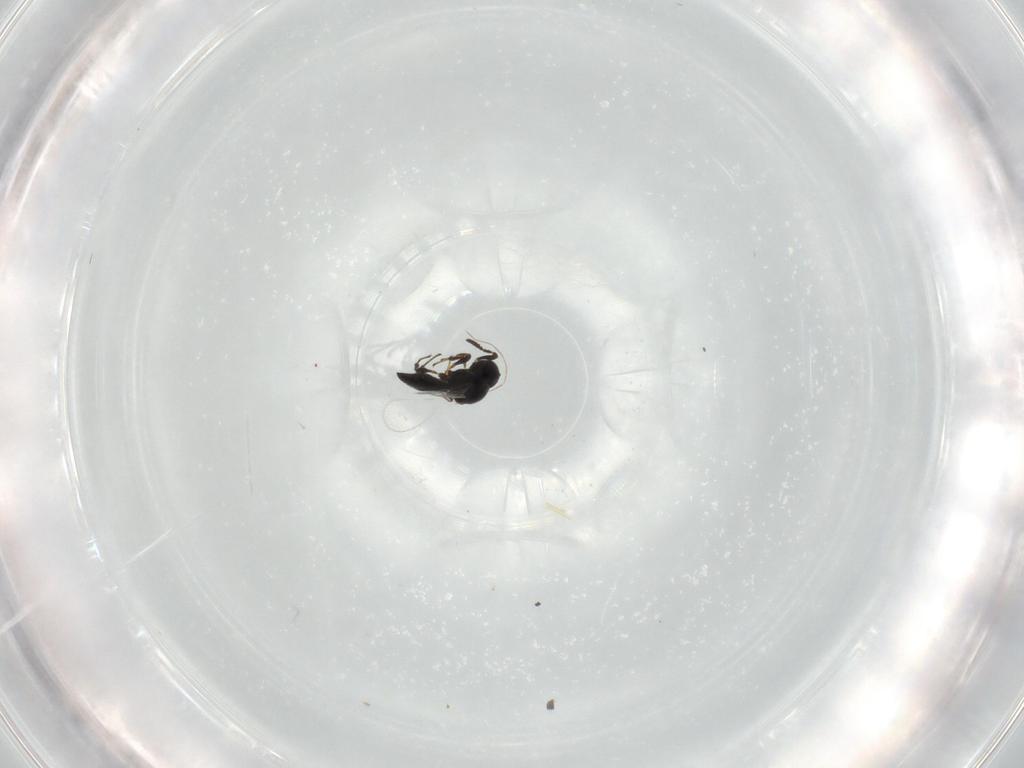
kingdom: Animalia
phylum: Arthropoda
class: Insecta
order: Hymenoptera
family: Platygastridae
